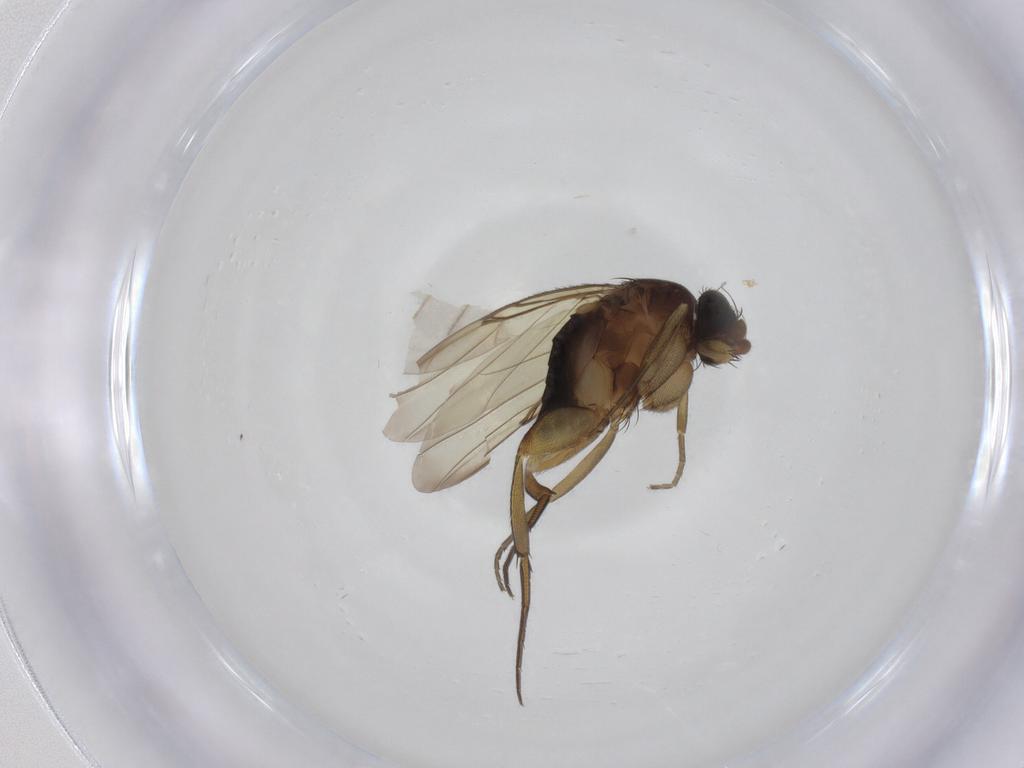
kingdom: Animalia
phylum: Arthropoda
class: Insecta
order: Diptera
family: Phoridae
